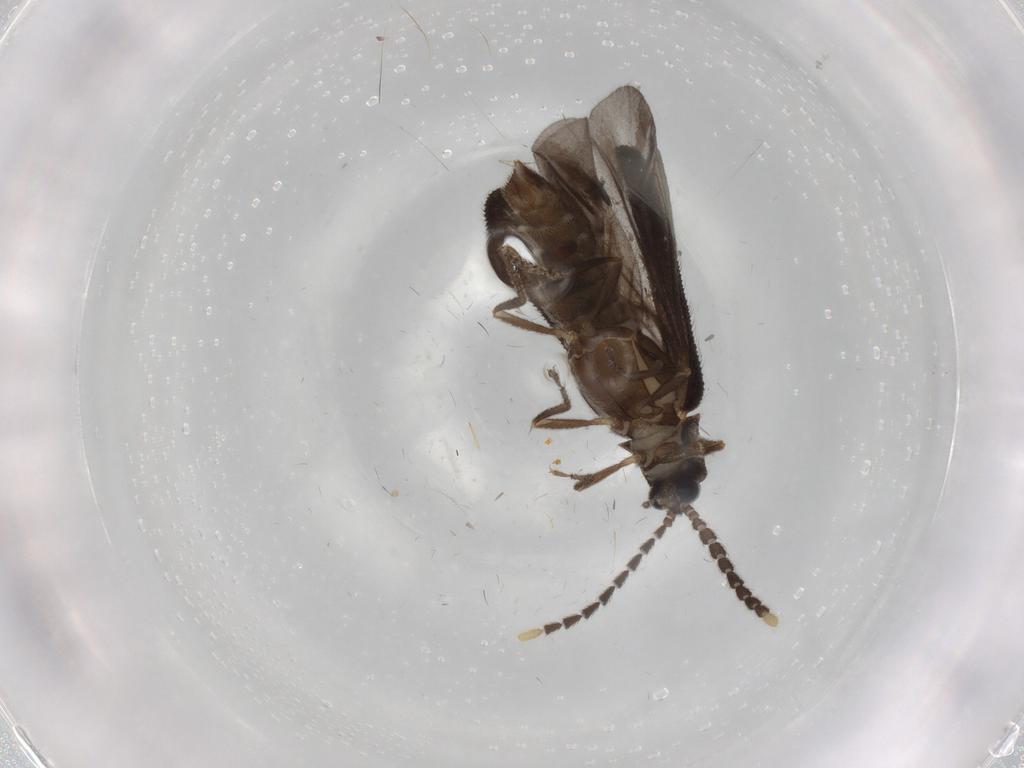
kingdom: Animalia
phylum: Arthropoda
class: Insecta
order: Coleoptera
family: Lycidae
